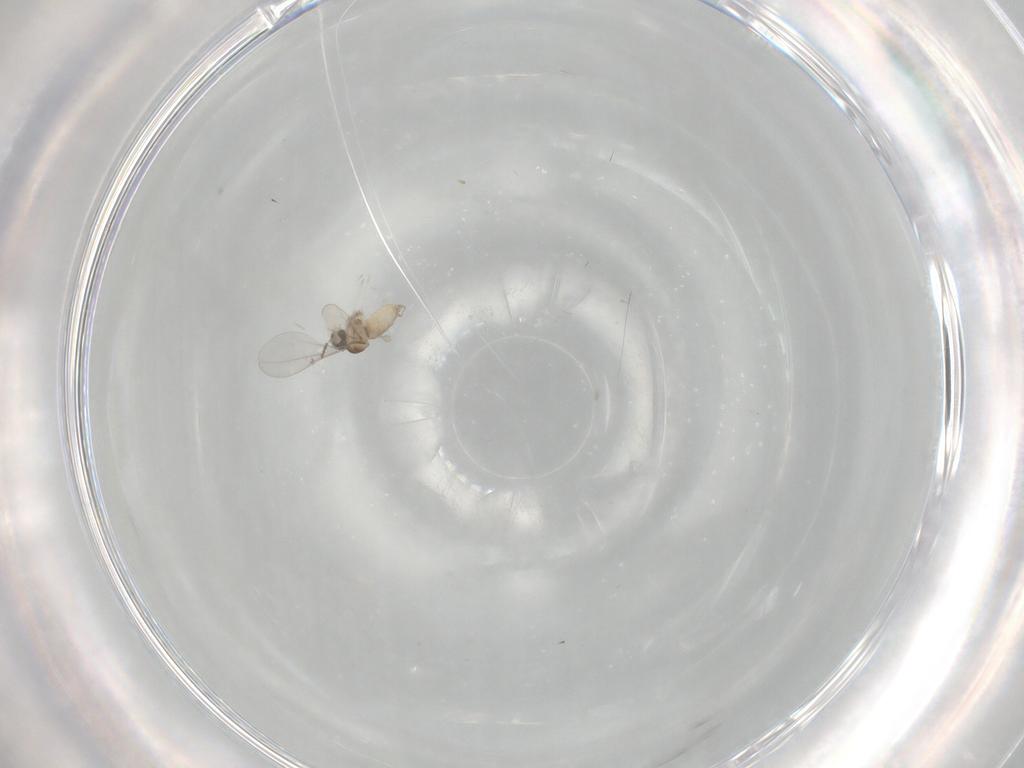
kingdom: Animalia
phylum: Arthropoda
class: Insecta
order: Diptera
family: Cecidomyiidae
